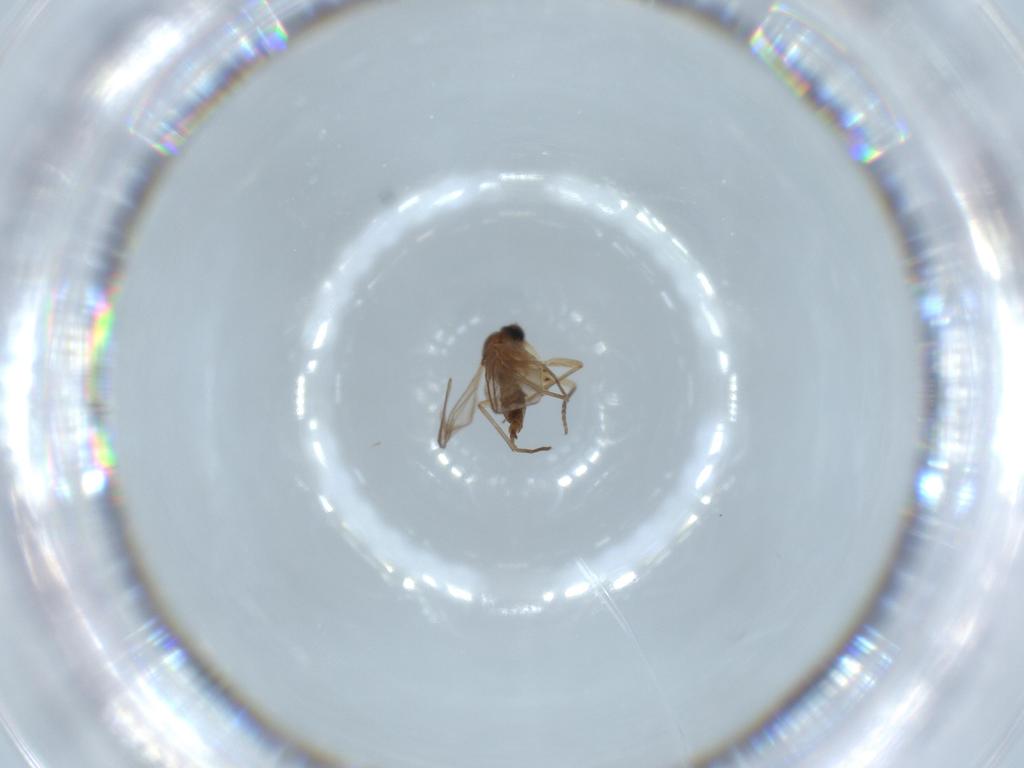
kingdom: Animalia
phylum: Arthropoda
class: Insecta
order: Diptera
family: Sciaridae
